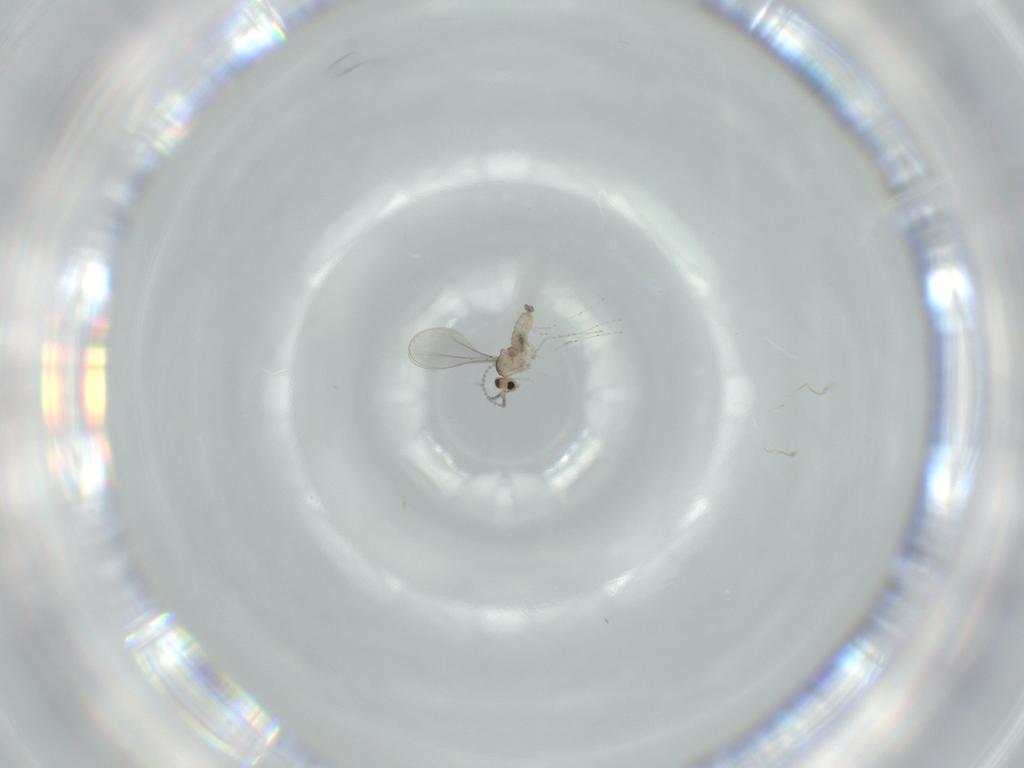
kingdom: Animalia
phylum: Arthropoda
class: Insecta
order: Diptera
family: Cecidomyiidae
